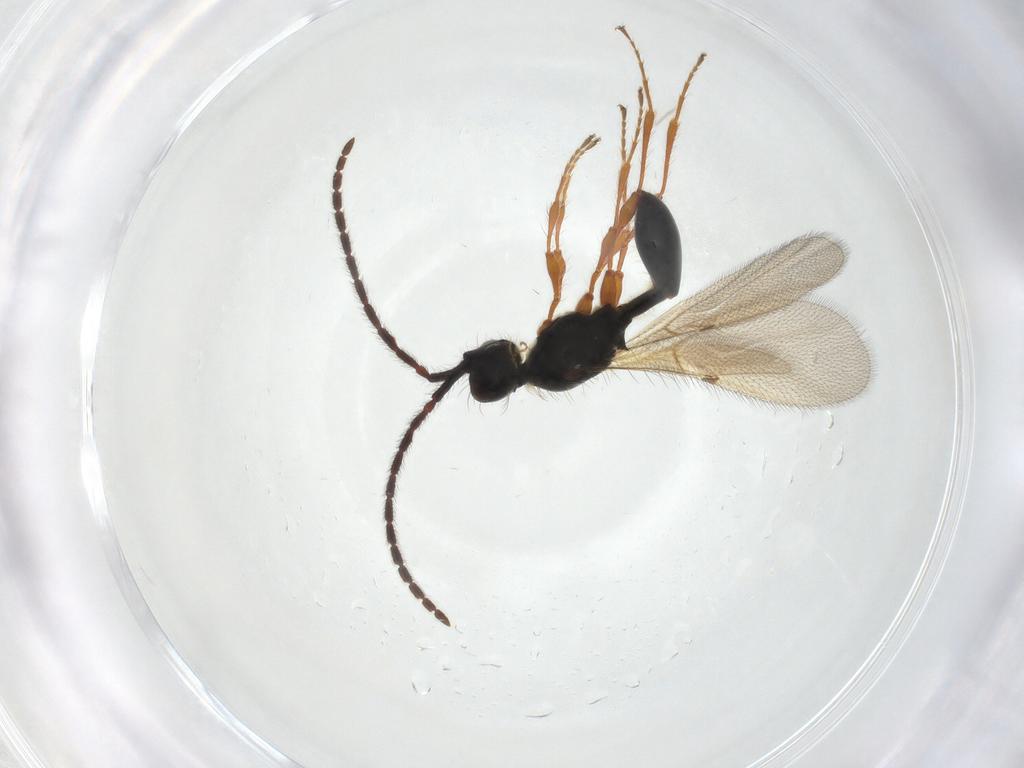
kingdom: Animalia
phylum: Arthropoda
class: Insecta
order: Hymenoptera
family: Diapriidae
